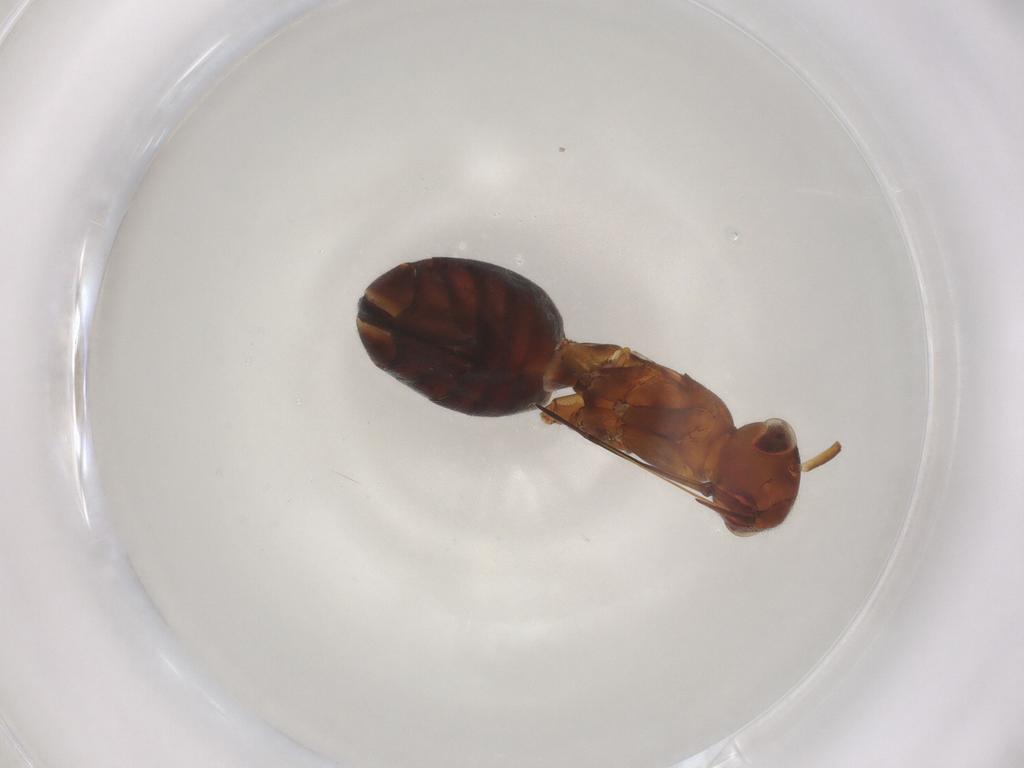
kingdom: Animalia
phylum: Arthropoda
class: Insecta
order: Hemiptera
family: Miridae
